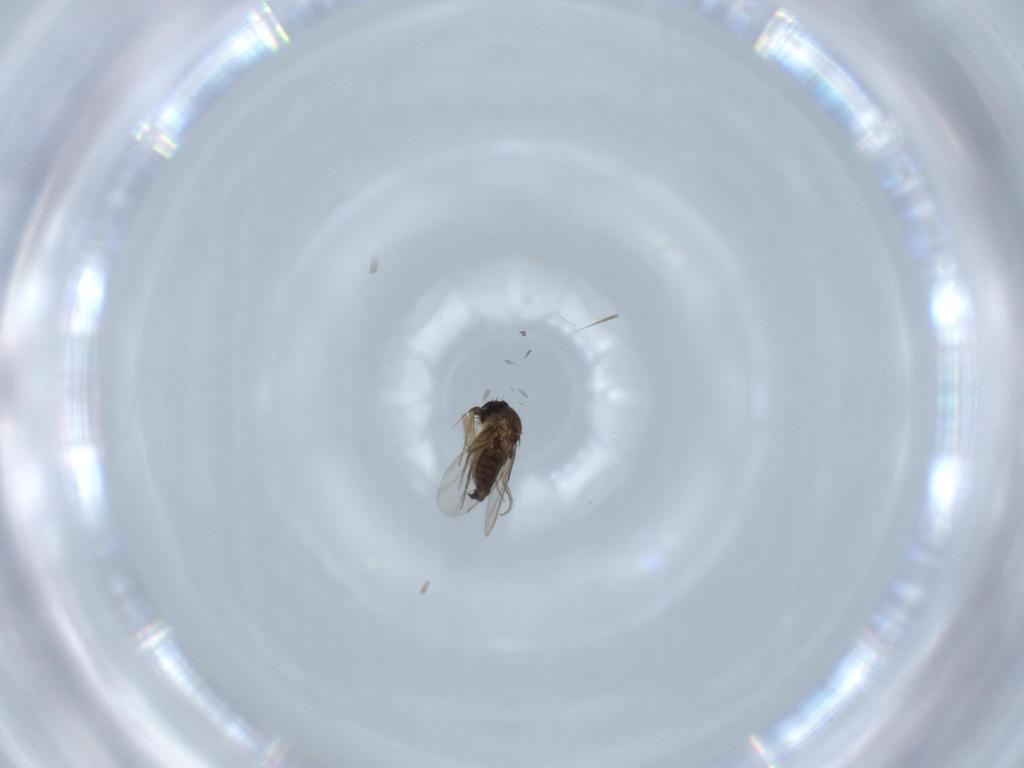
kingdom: Animalia
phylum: Arthropoda
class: Insecta
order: Diptera
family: Phoridae
